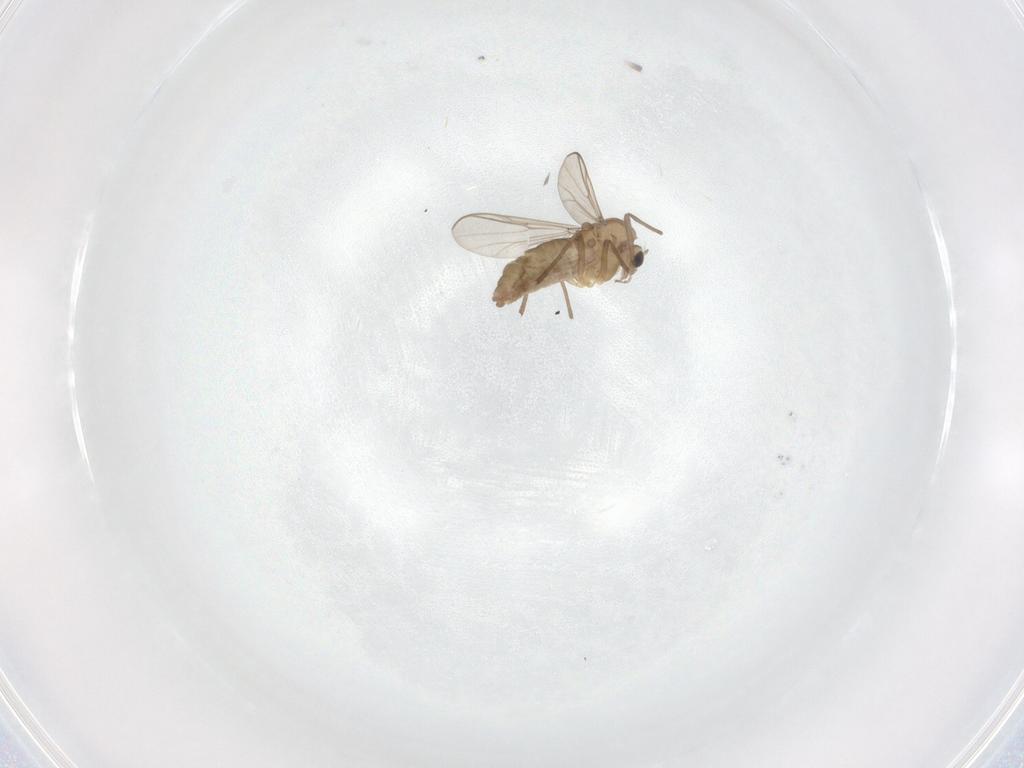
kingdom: Animalia
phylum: Arthropoda
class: Insecta
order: Diptera
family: Chironomidae
